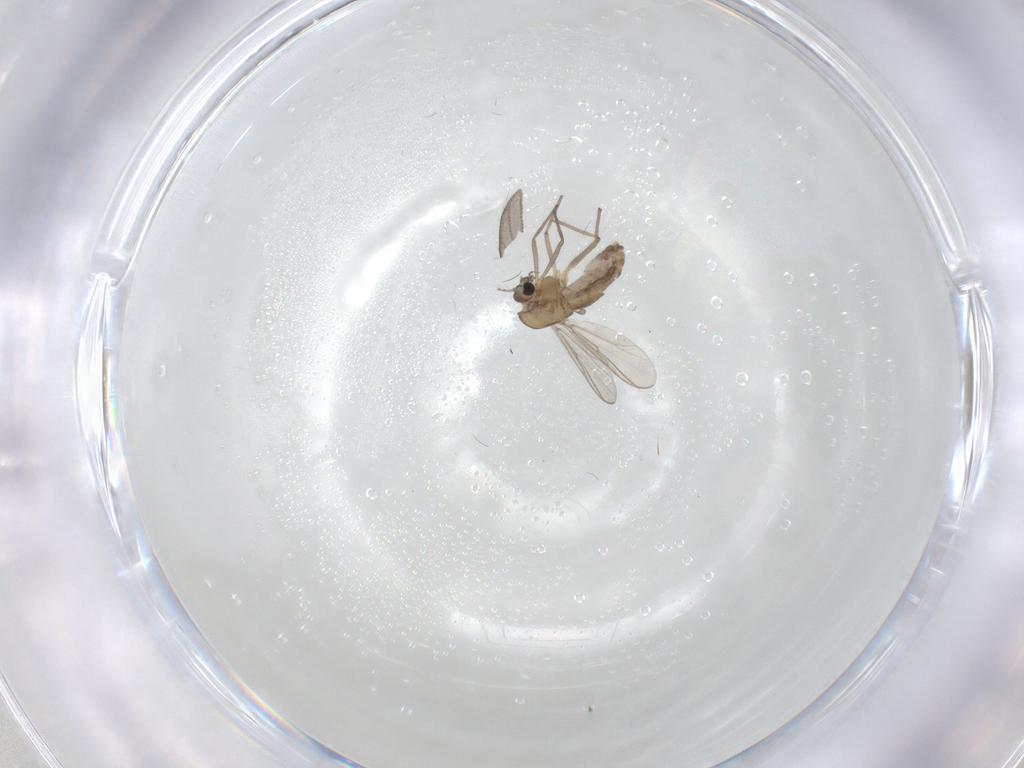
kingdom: Animalia
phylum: Arthropoda
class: Insecta
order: Diptera
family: Chironomidae
